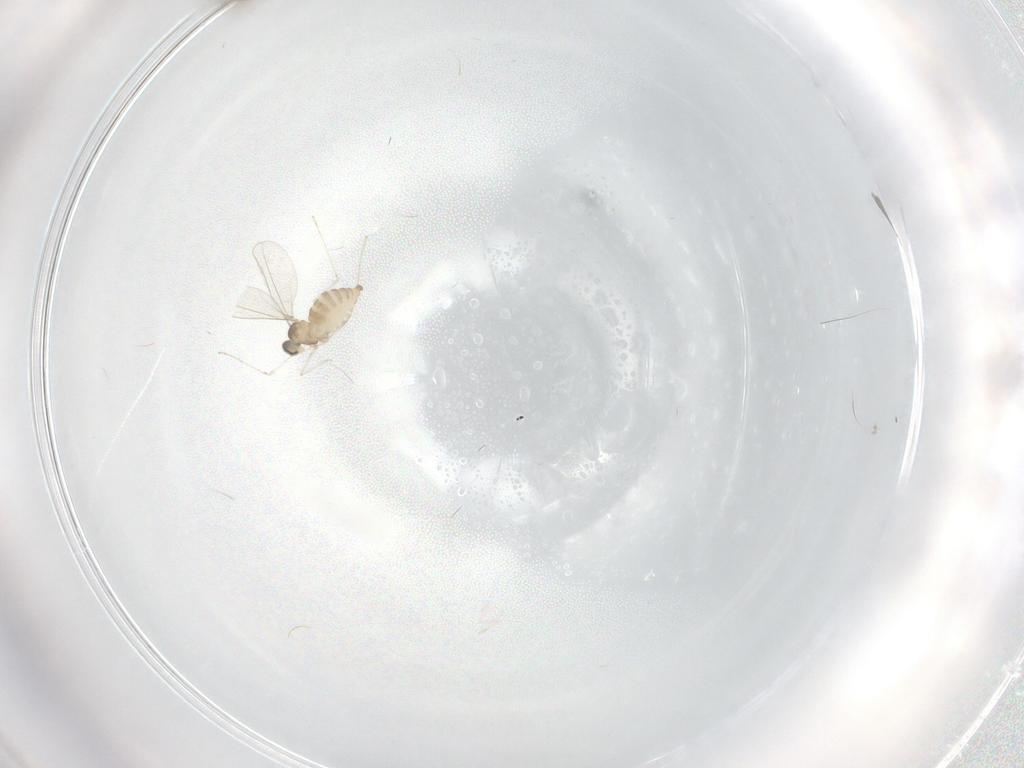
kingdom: Animalia
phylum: Arthropoda
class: Insecta
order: Diptera
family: Cecidomyiidae
